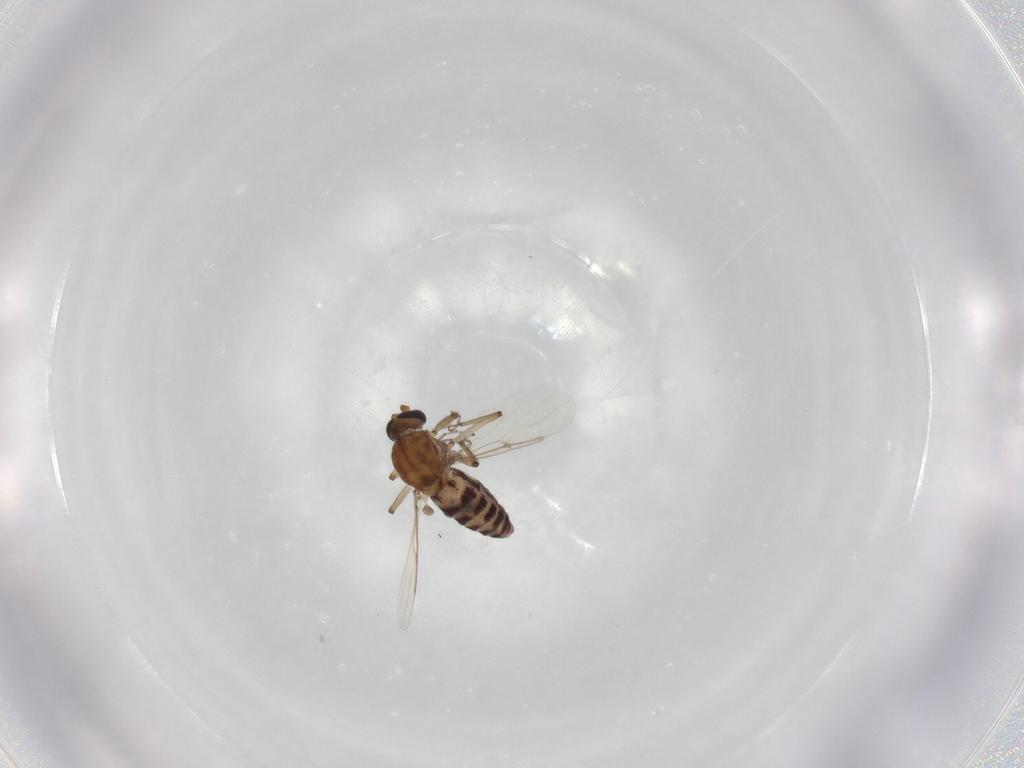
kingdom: Animalia
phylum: Arthropoda
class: Insecta
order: Diptera
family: Ceratopogonidae
